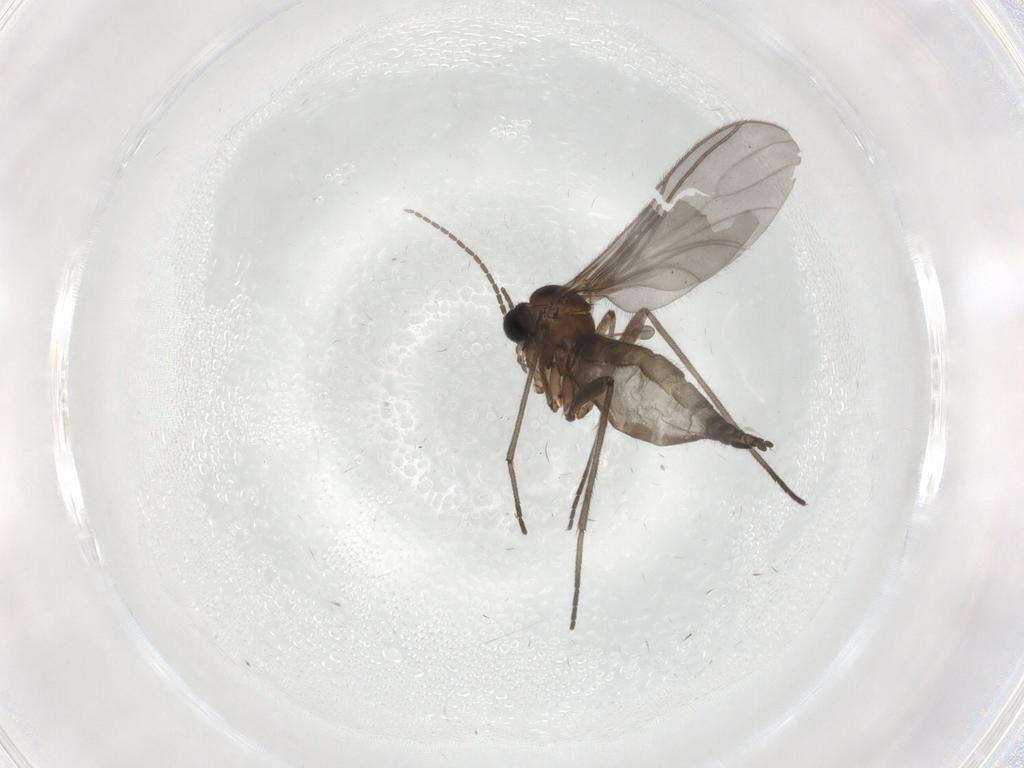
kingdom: Animalia
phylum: Arthropoda
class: Insecta
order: Diptera
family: Sciaridae
